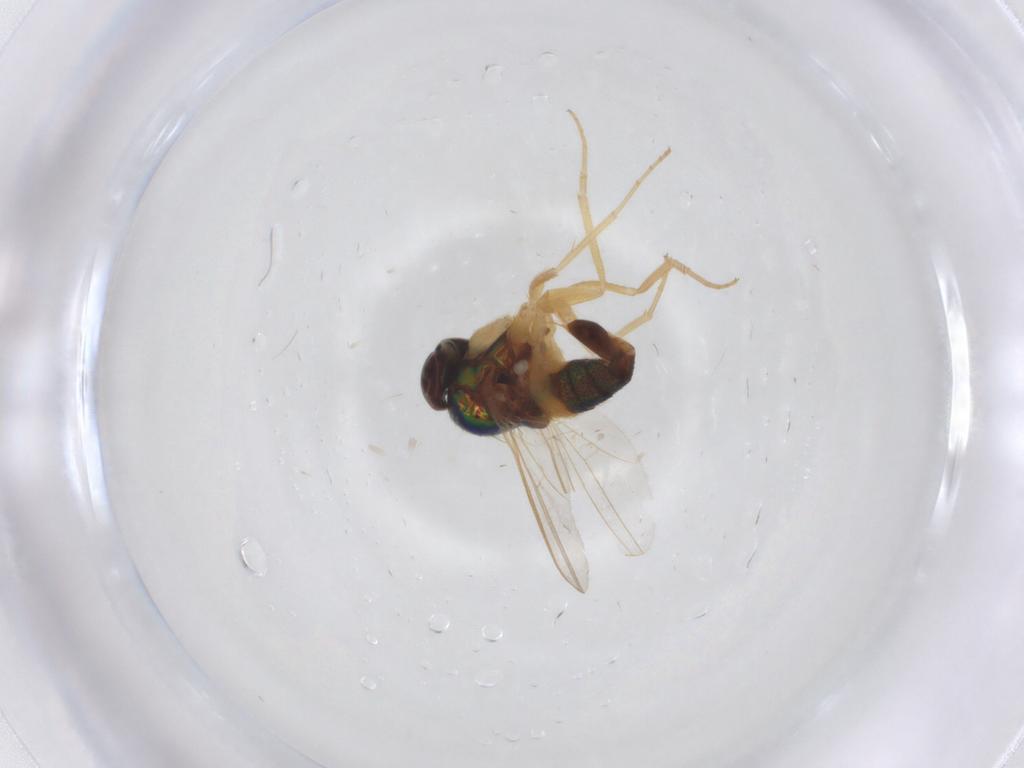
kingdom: Animalia
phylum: Arthropoda
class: Insecta
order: Diptera
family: Dolichopodidae
